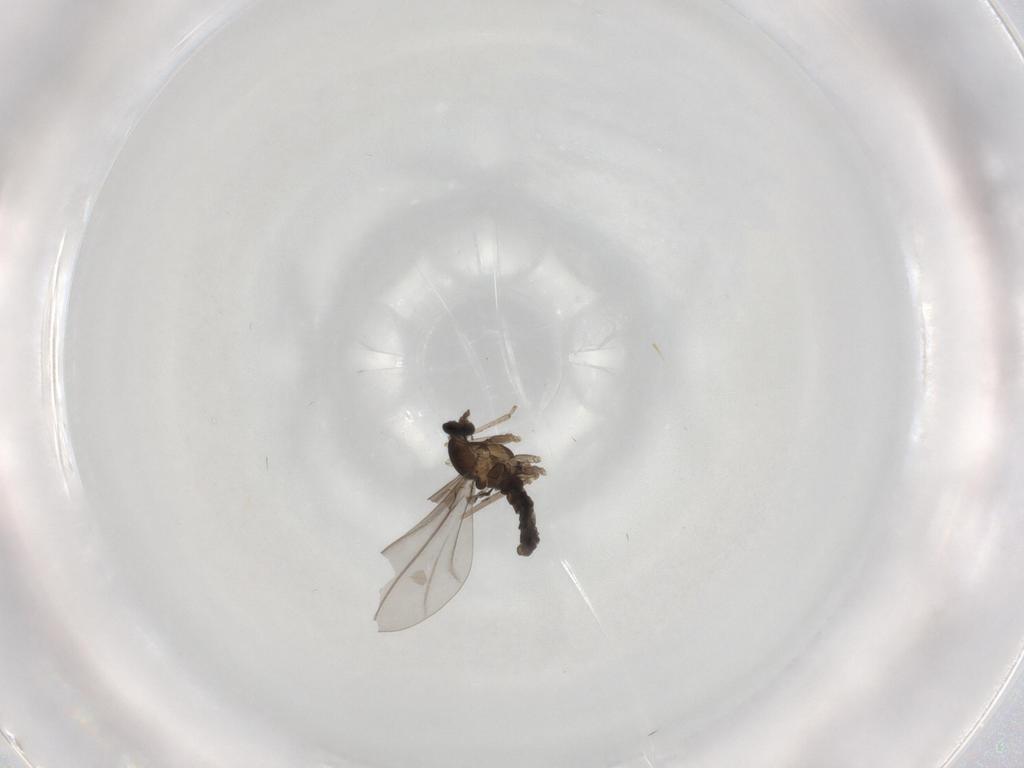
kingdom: Animalia
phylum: Arthropoda
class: Insecta
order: Diptera
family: Cecidomyiidae
